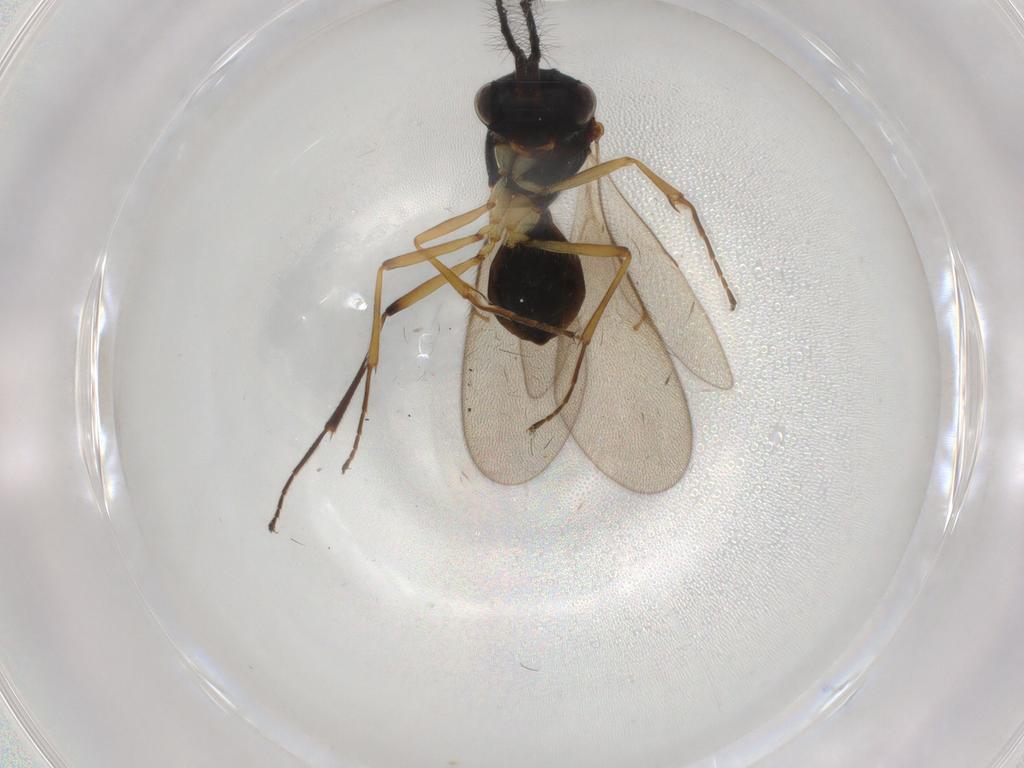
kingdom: Animalia
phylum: Arthropoda
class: Insecta
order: Hymenoptera
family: Scelionidae
